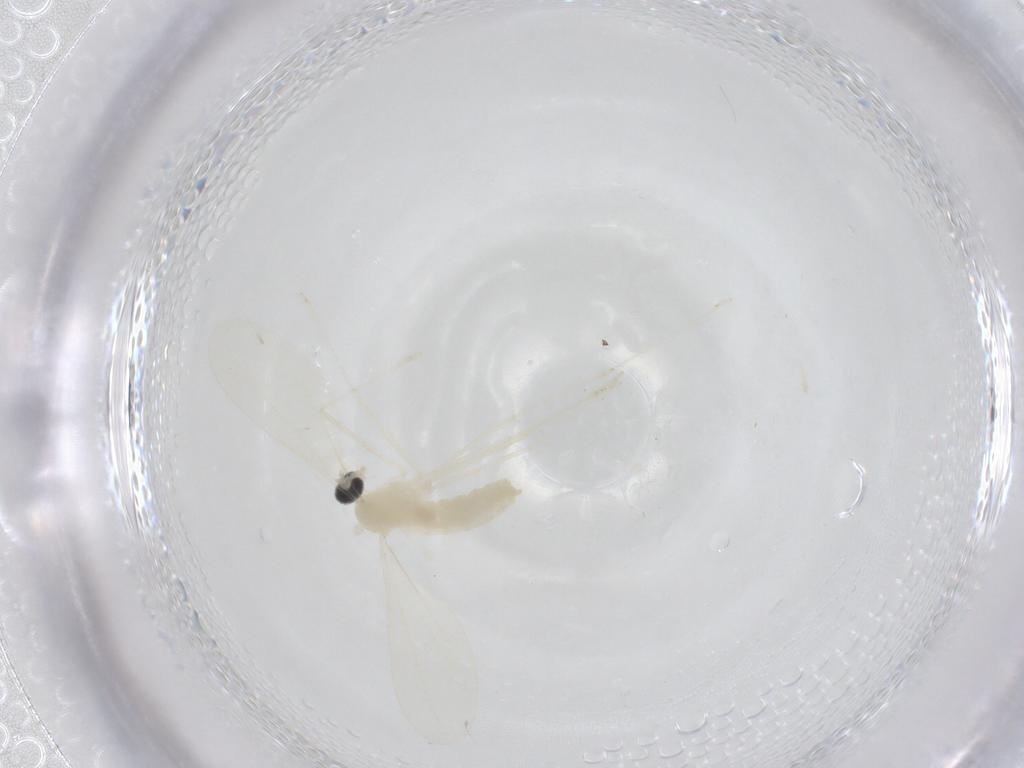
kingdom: Animalia
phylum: Arthropoda
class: Insecta
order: Diptera
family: Cecidomyiidae
